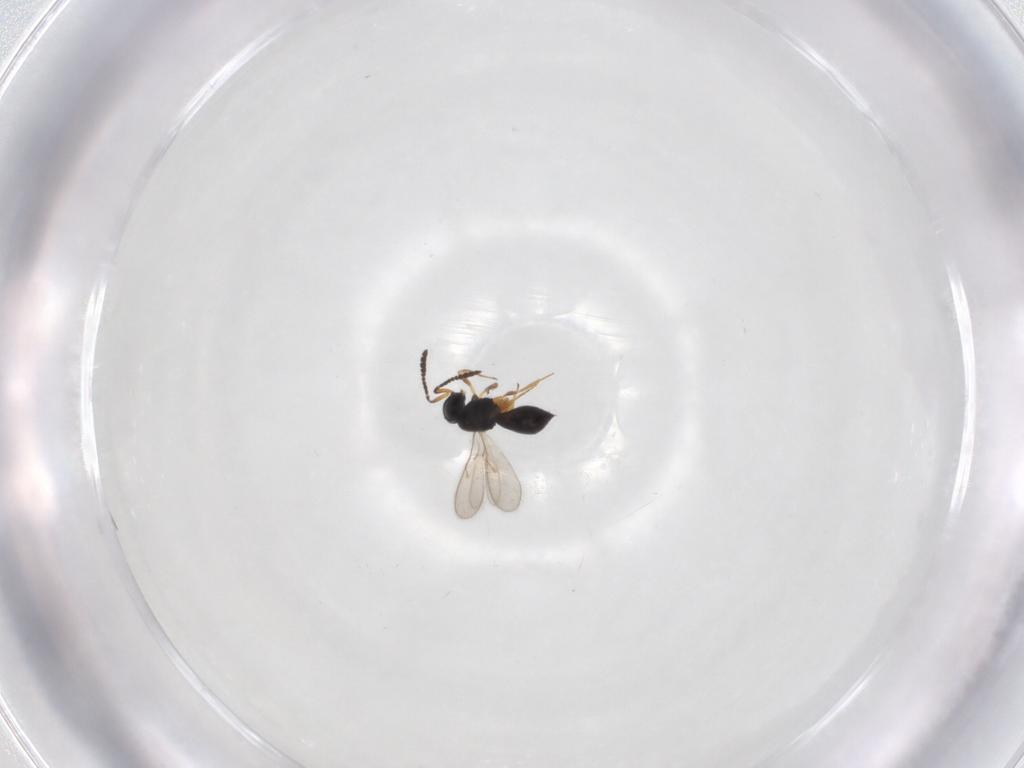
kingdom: Animalia
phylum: Arthropoda
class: Insecta
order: Hymenoptera
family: Scelionidae
